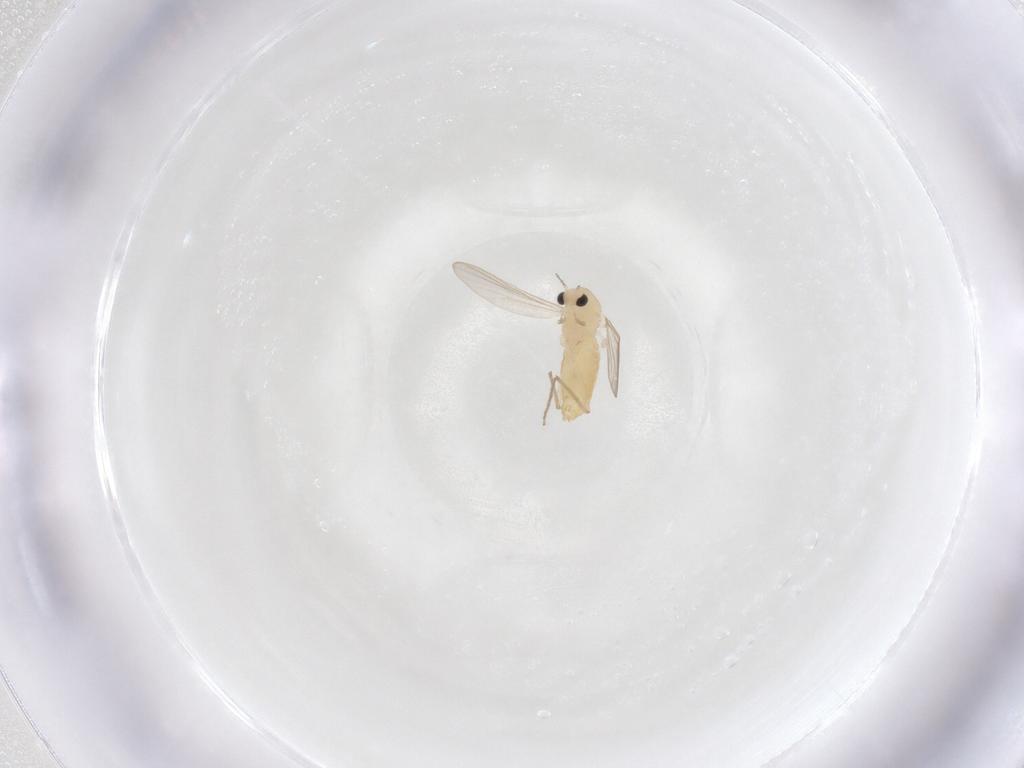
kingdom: Animalia
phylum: Arthropoda
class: Insecta
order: Diptera
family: Chironomidae
